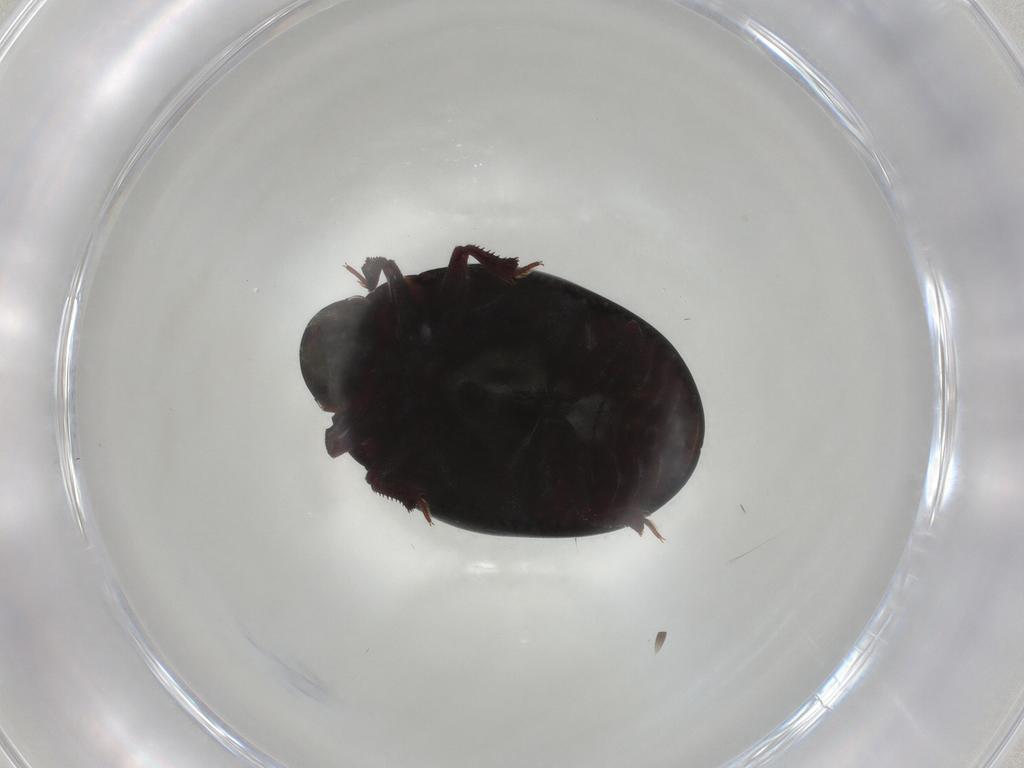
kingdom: Animalia
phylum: Arthropoda
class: Insecta
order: Coleoptera
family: Nosodendridae
